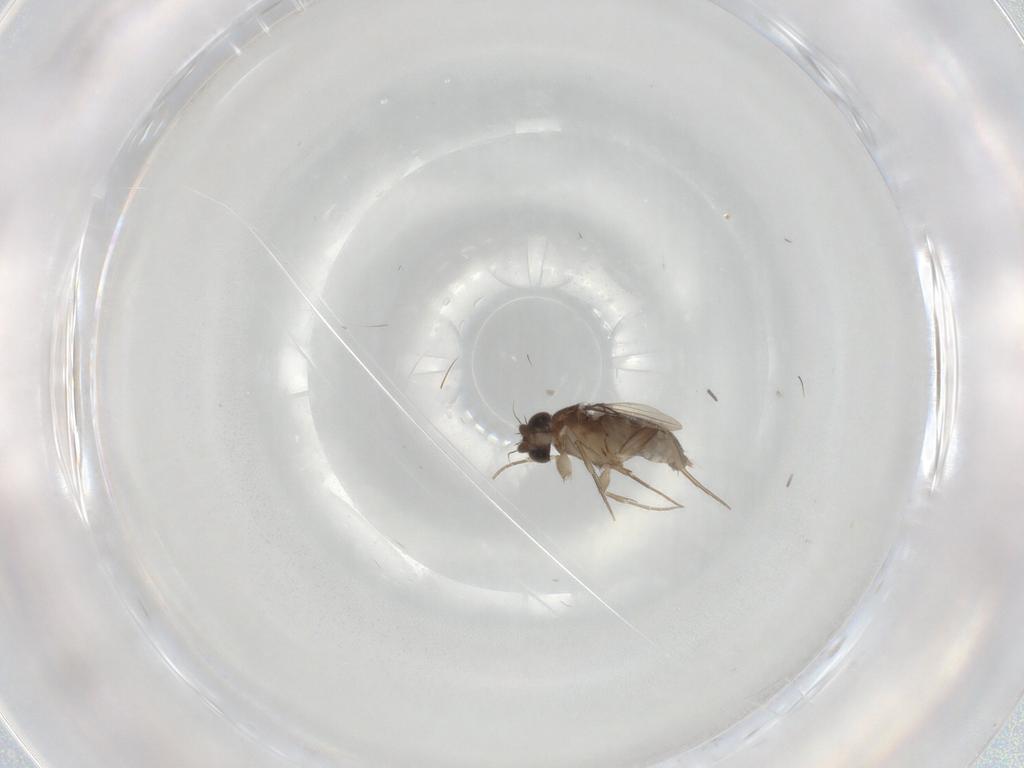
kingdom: Animalia
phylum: Arthropoda
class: Insecta
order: Diptera
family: Phoridae
